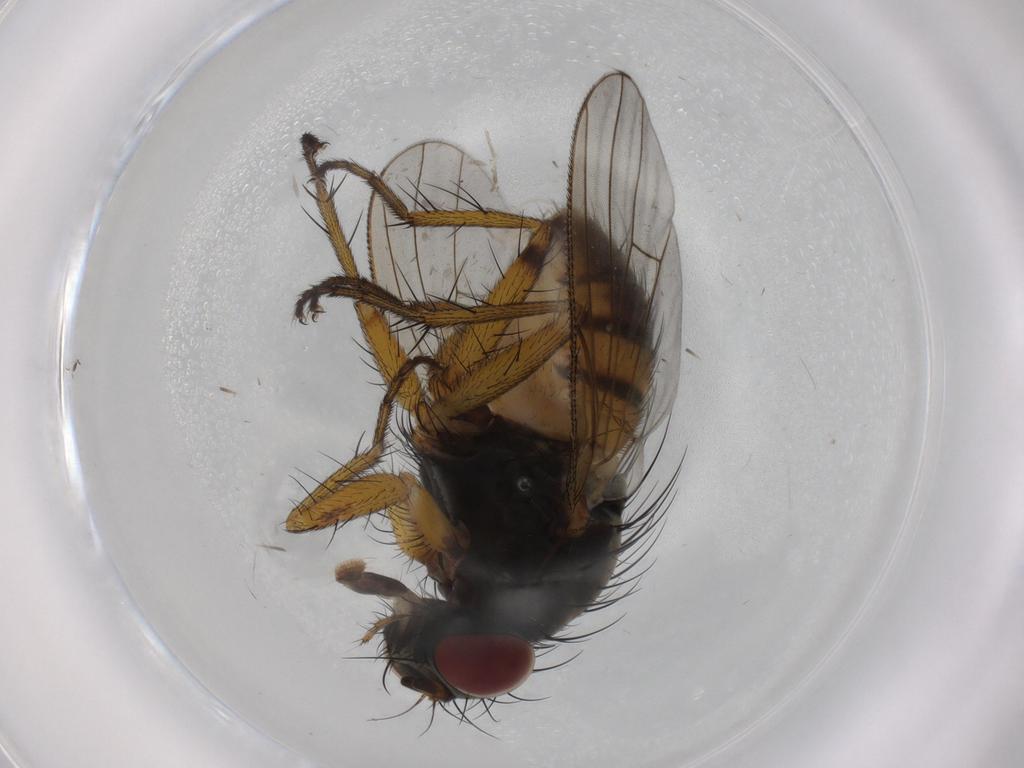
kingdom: Animalia
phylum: Arthropoda
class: Insecta
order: Diptera
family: Muscidae
